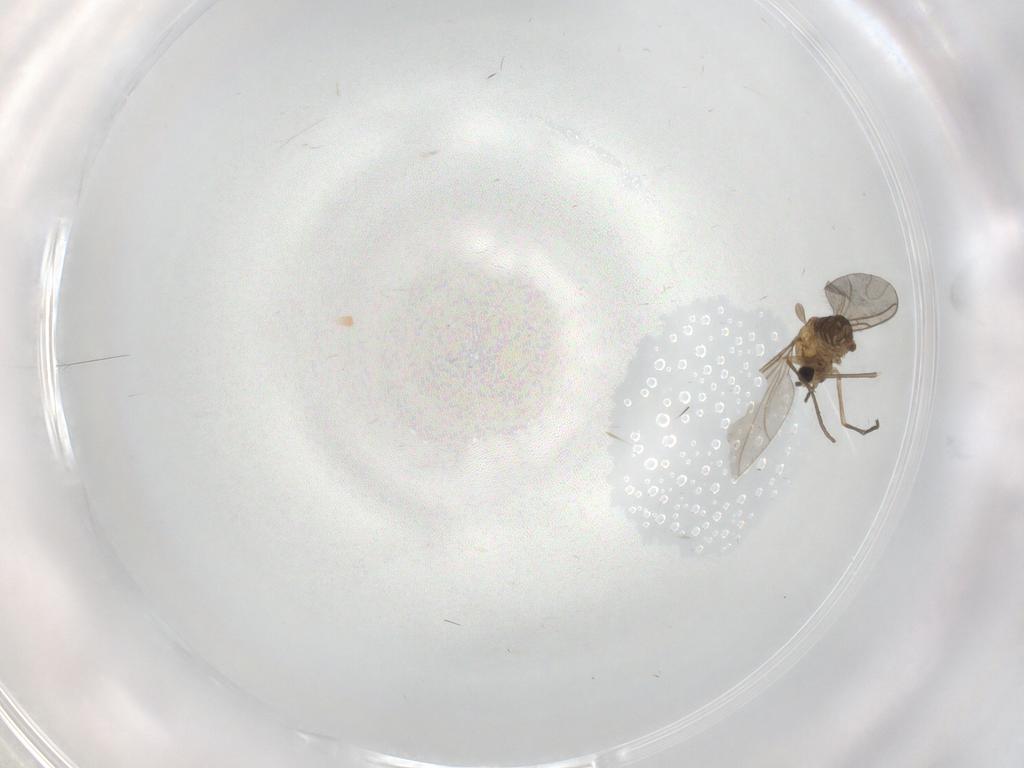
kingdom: Animalia
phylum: Arthropoda
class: Insecta
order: Diptera
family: Sciaridae
